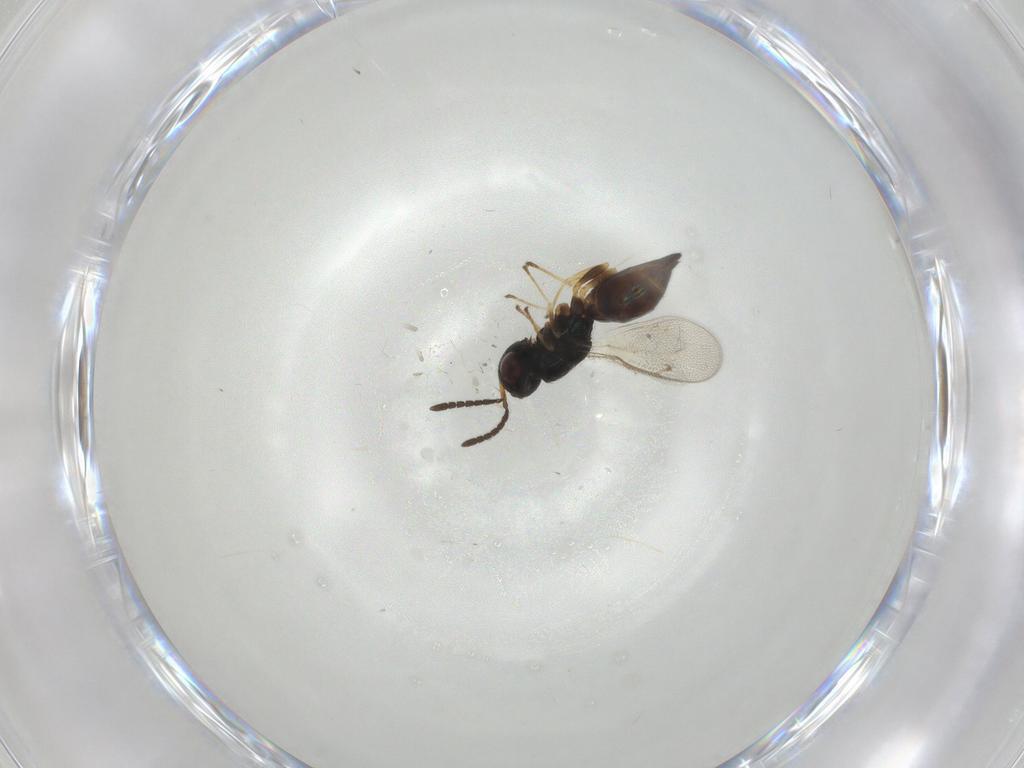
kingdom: Animalia
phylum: Arthropoda
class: Insecta
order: Hymenoptera
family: Pteromalidae
